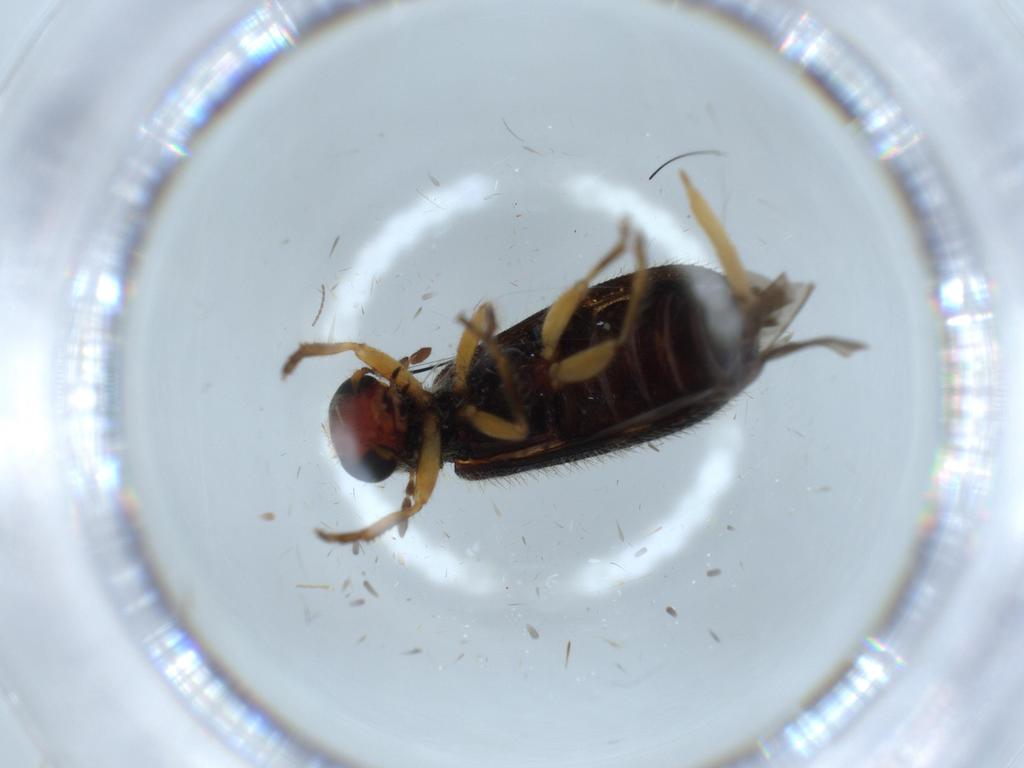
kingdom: Animalia
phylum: Arthropoda
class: Insecta
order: Coleoptera
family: Cleridae
